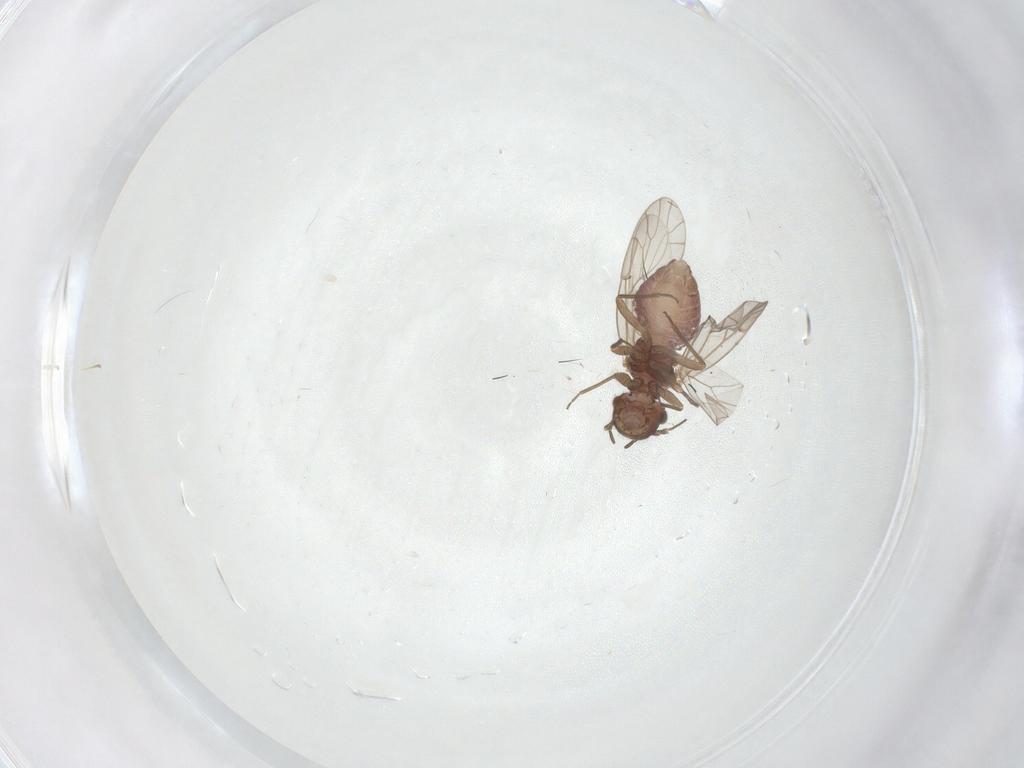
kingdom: Animalia
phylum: Arthropoda
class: Insecta
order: Psocodea
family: Ectopsocidae
